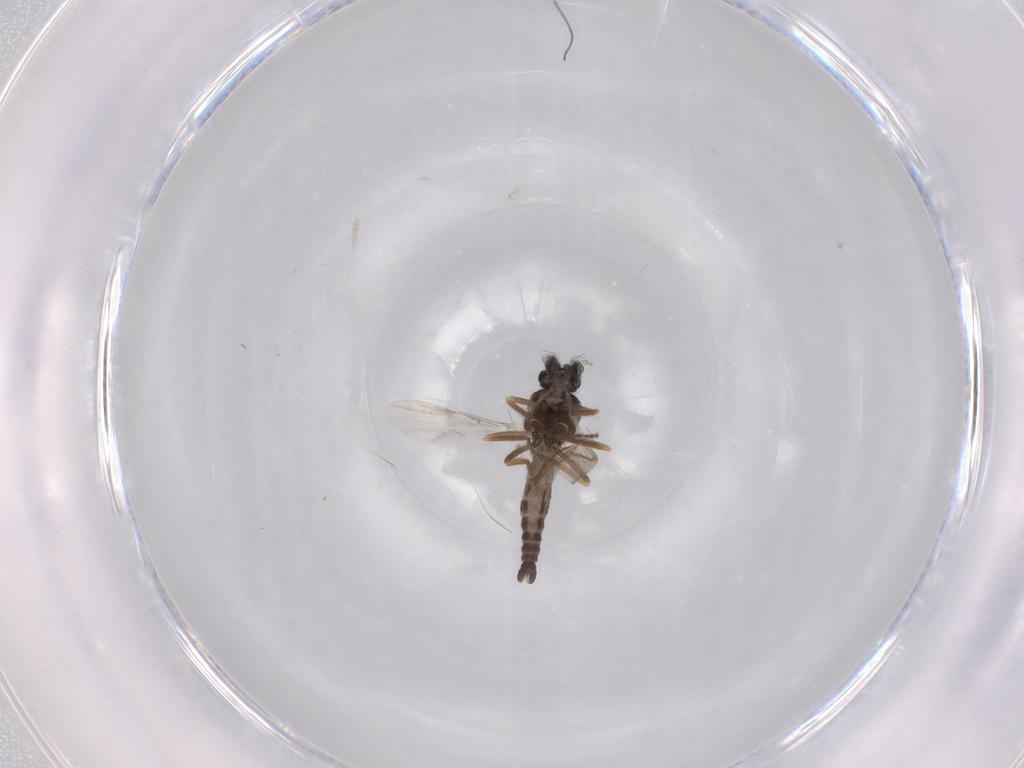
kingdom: Animalia
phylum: Arthropoda
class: Insecta
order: Diptera
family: Ceratopogonidae
